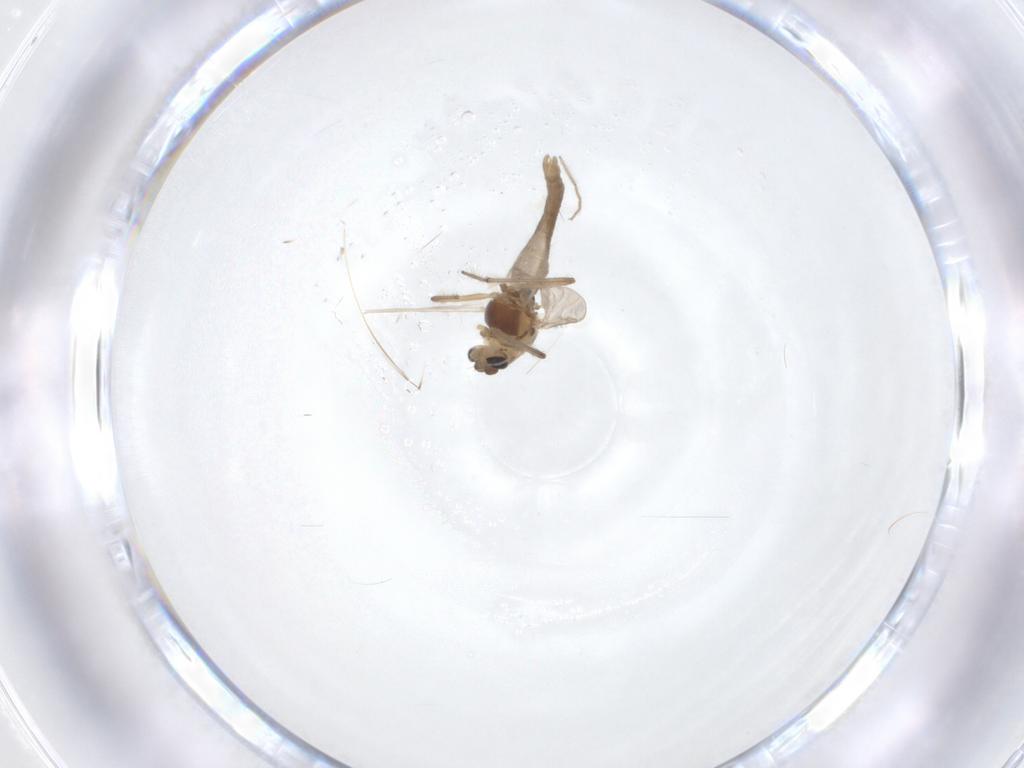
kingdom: Animalia
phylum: Arthropoda
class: Insecta
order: Diptera
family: Chironomidae
